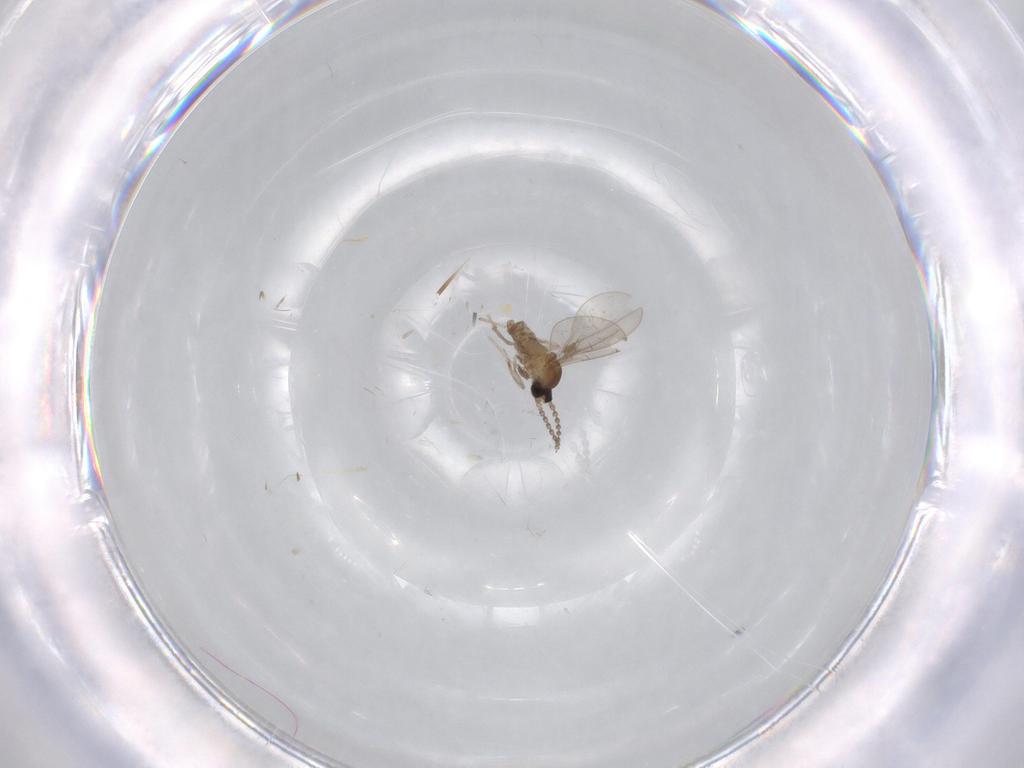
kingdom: Animalia
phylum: Arthropoda
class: Insecta
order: Diptera
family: Cecidomyiidae
